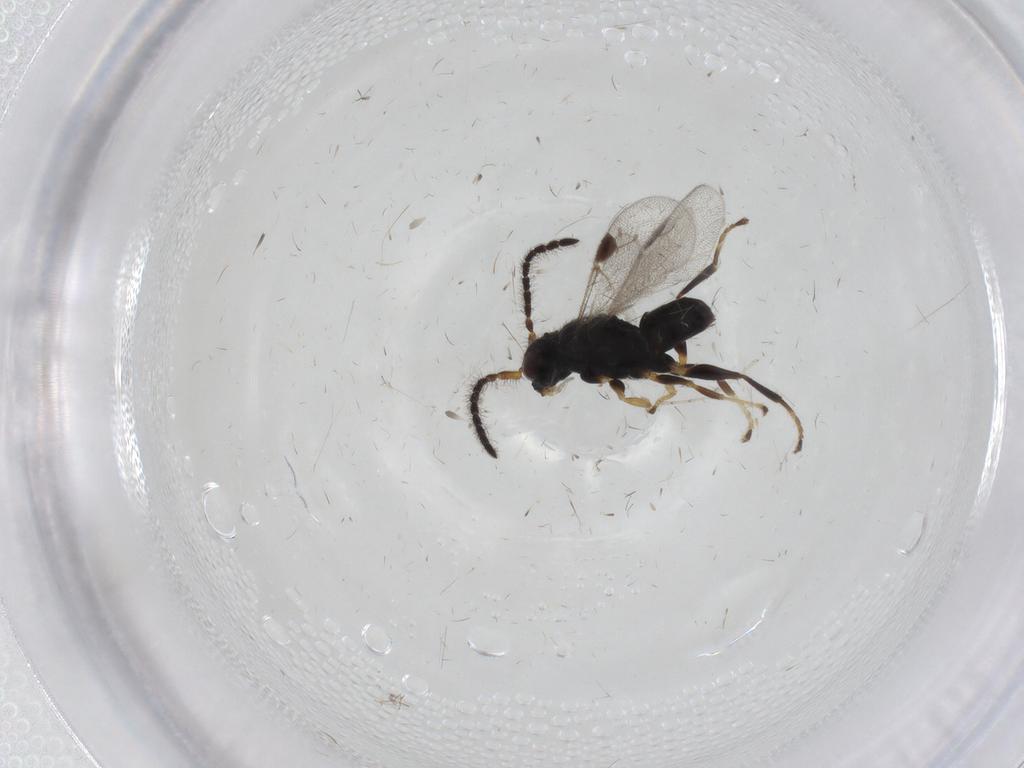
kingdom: Animalia
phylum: Arthropoda
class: Insecta
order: Hymenoptera
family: Dryinidae
